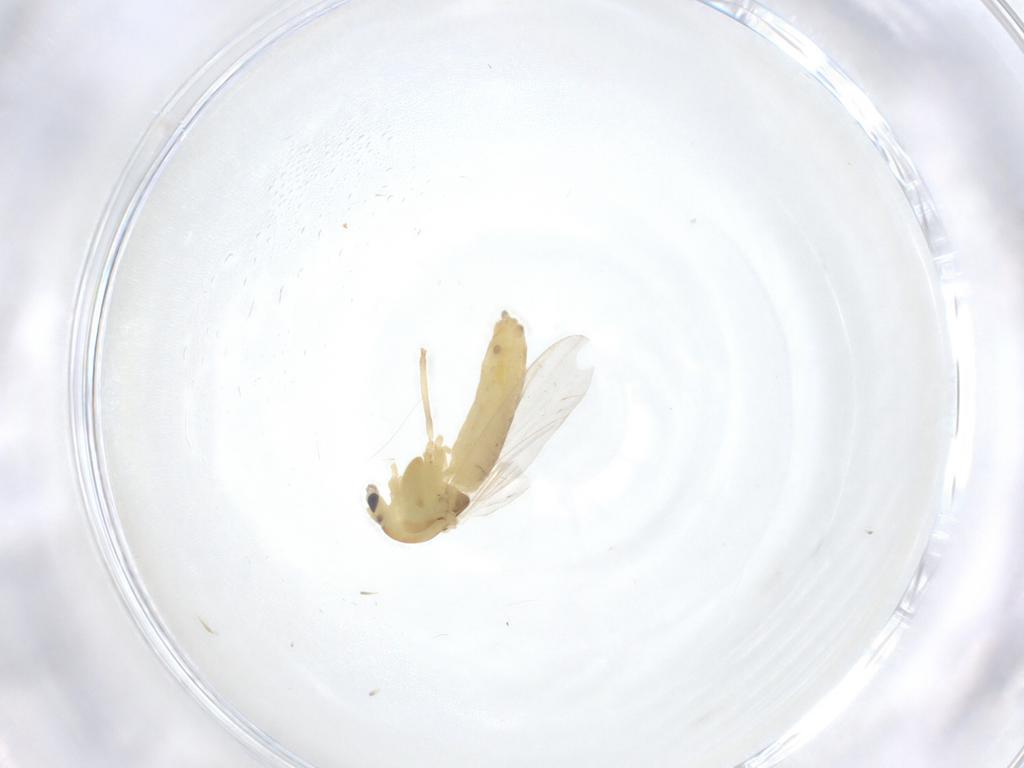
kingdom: Animalia
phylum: Arthropoda
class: Insecta
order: Diptera
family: Chironomidae
